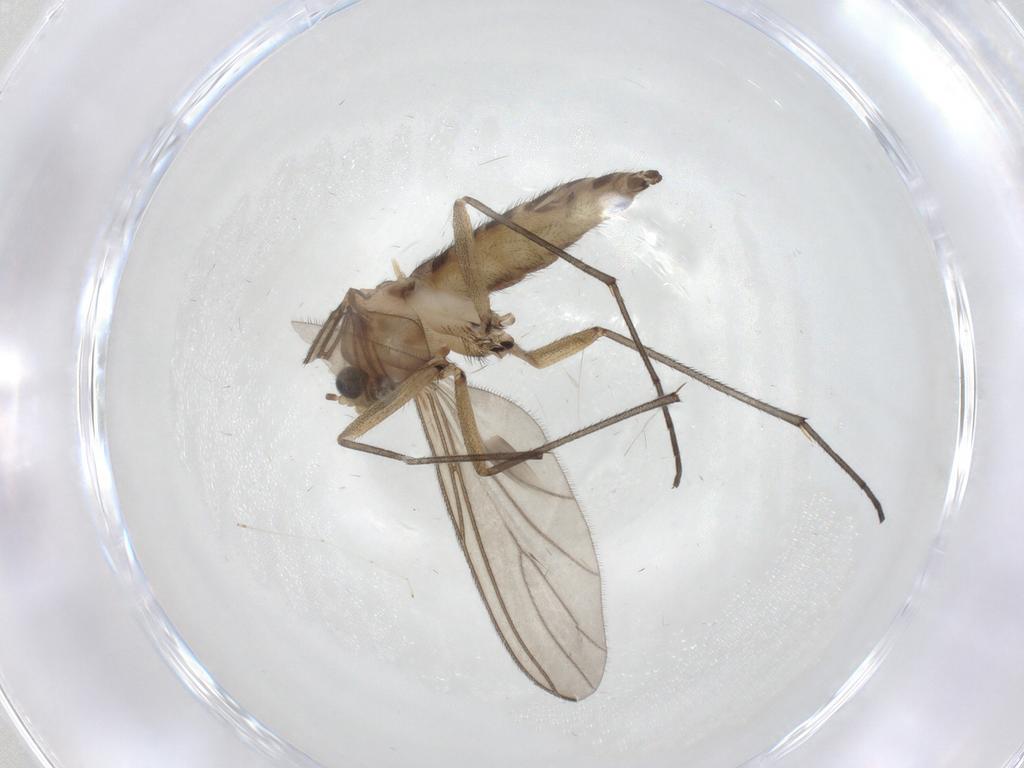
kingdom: Animalia
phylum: Arthropoda
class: Insecta
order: Diptera
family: Sciaridae
